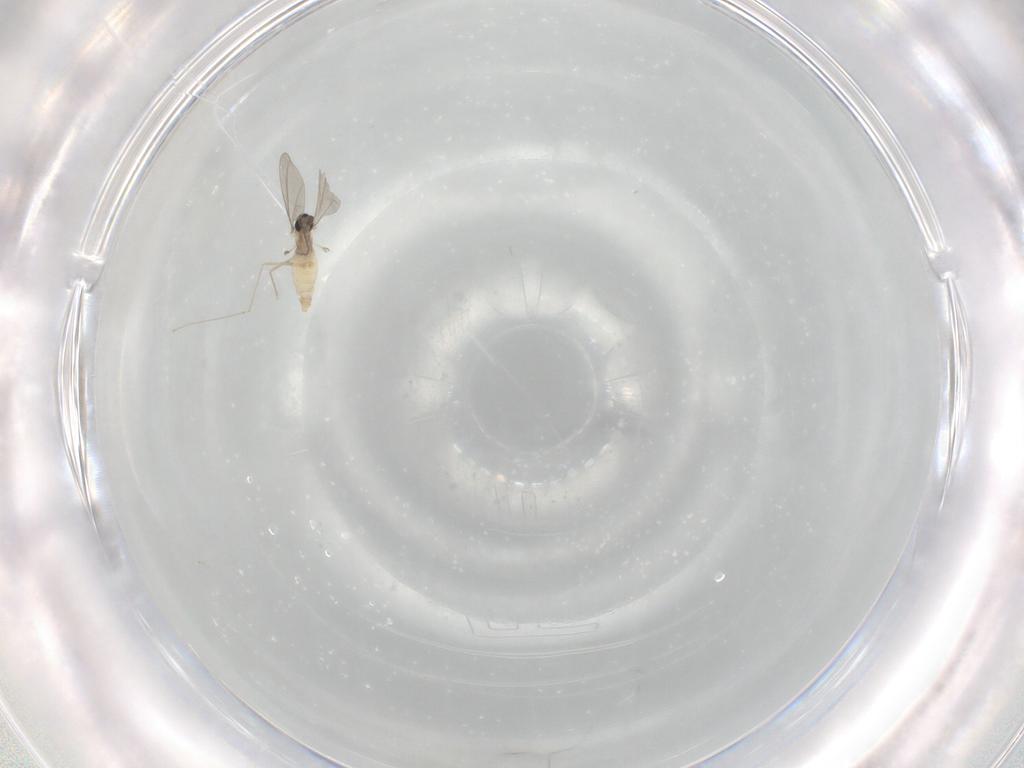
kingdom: Animalia
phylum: Arthropoda
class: Insecta
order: Diptera
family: Cecidomyiidae
